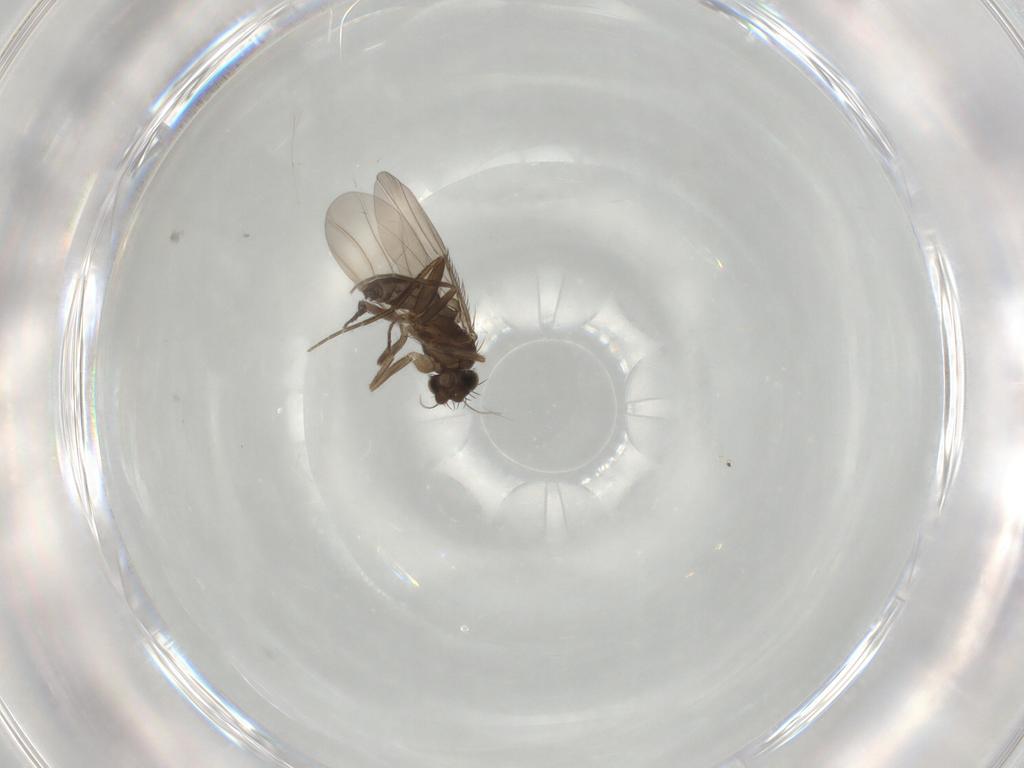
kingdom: Animalia
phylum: Arthropoda
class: Insecta
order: Diptera
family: Phoridae
